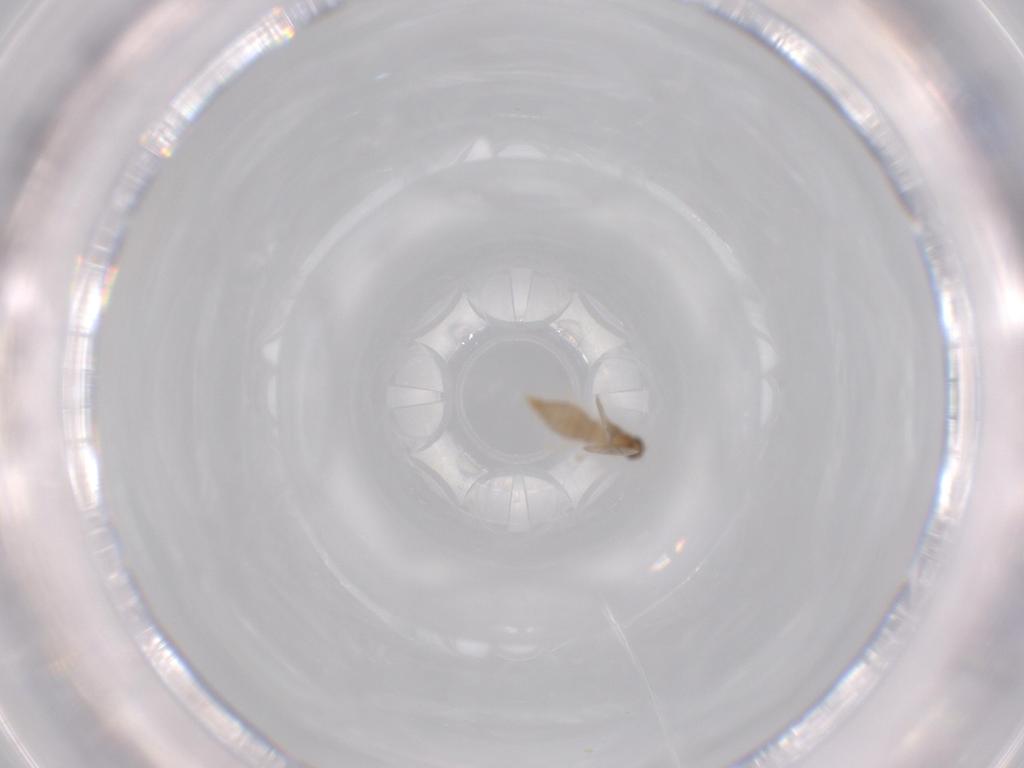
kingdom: Animalia
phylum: Arthropoda
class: Insecta
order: Diptera
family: Cecidomyiidae
